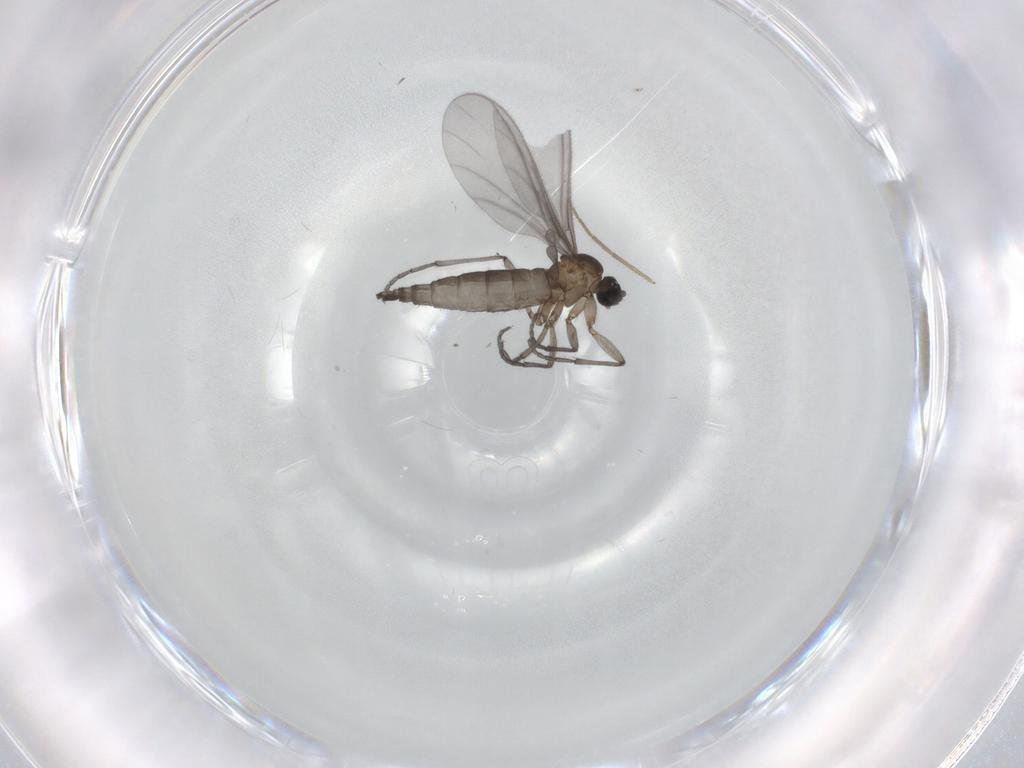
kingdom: Animalia
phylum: Arthropoda
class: Insecta
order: Diptera
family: Sciaridae
